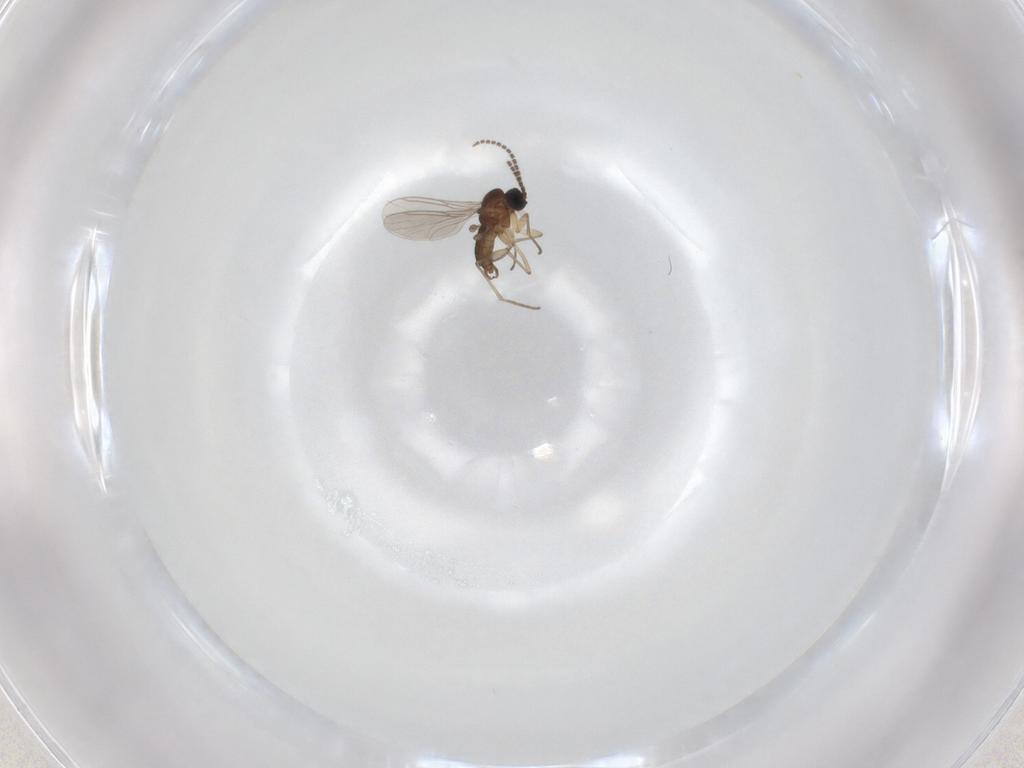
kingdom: Animalia
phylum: Arthropoda
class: Insecta
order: Diptera
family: Sciaridae
